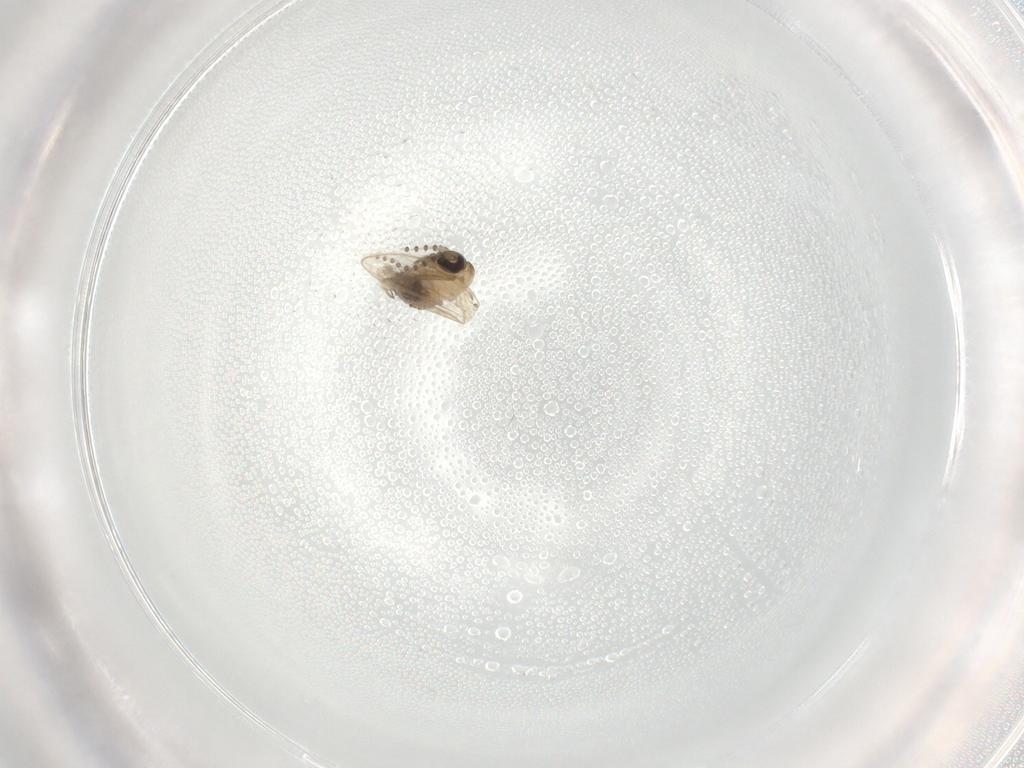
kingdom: Animalia
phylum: Arthropoda
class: Insecta
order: Diptera
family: Psychodidae
